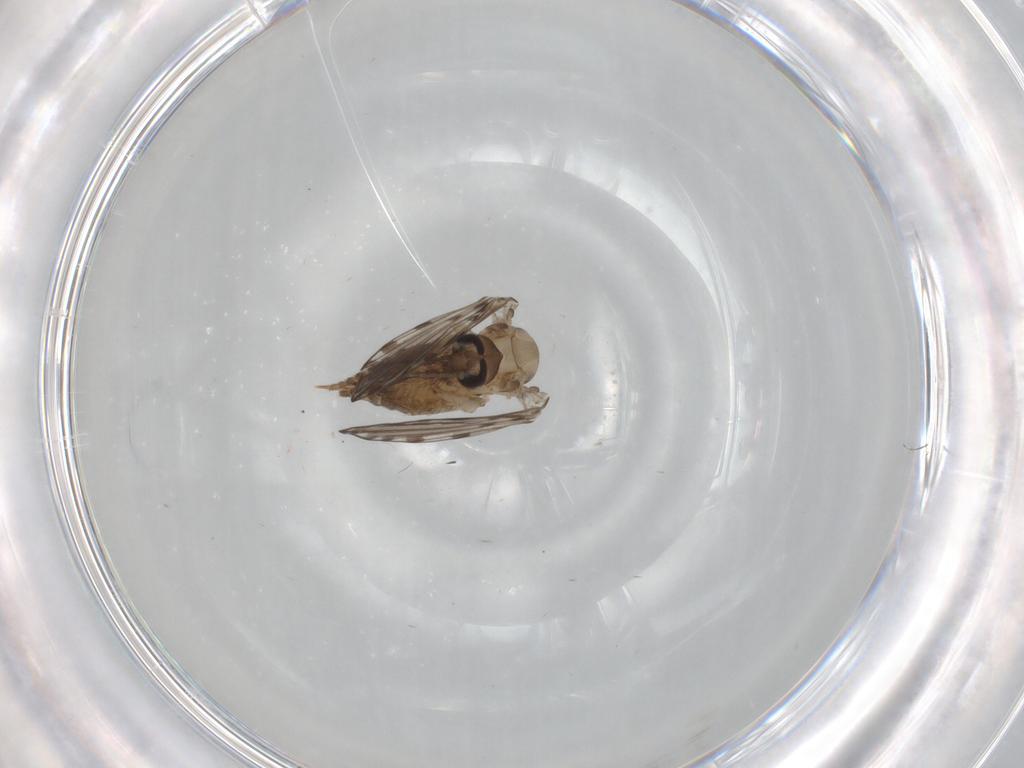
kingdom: Animalia
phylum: Arthropoda
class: Insecta
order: Diptera
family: Psychodidae
